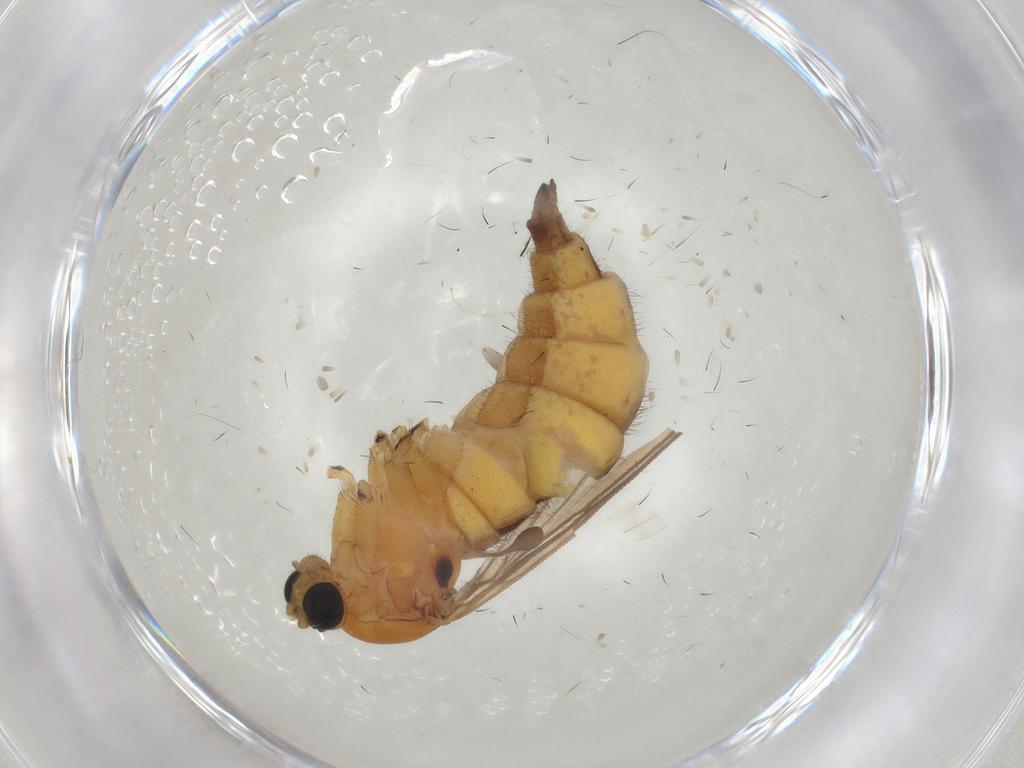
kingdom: Animalia
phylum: Arthropoda
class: Insecta
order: Diptera
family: Sciaridae
